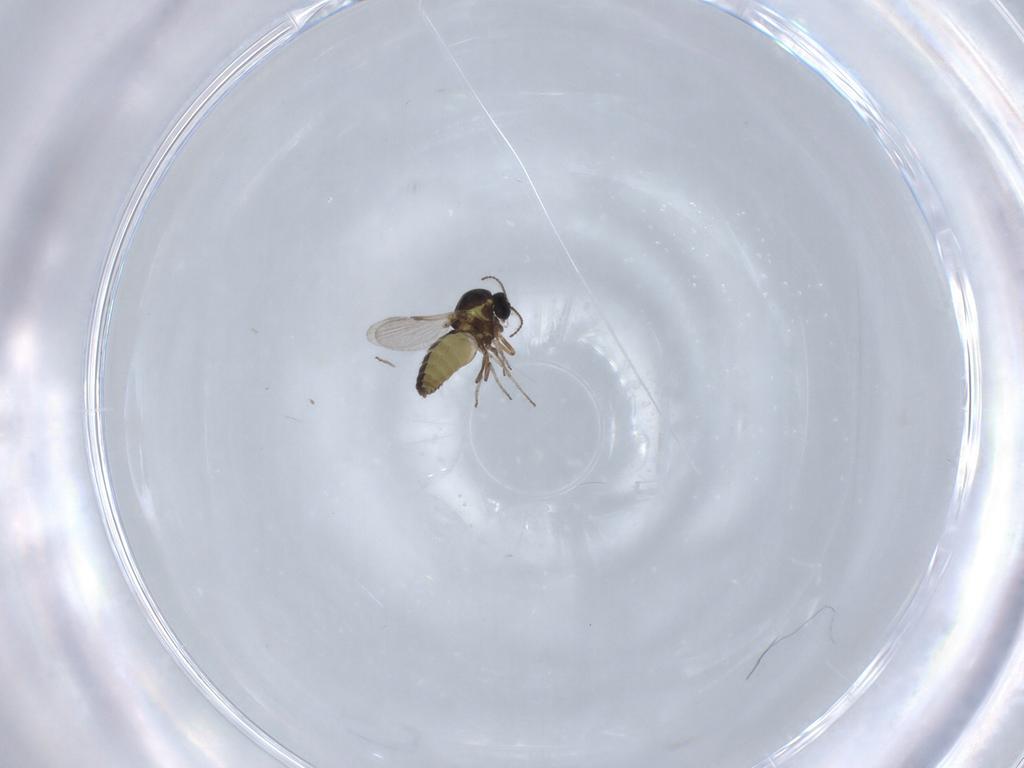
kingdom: Animalia
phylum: Arthropoda
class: Insecta
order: Diptera
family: Ceratopogonidae
